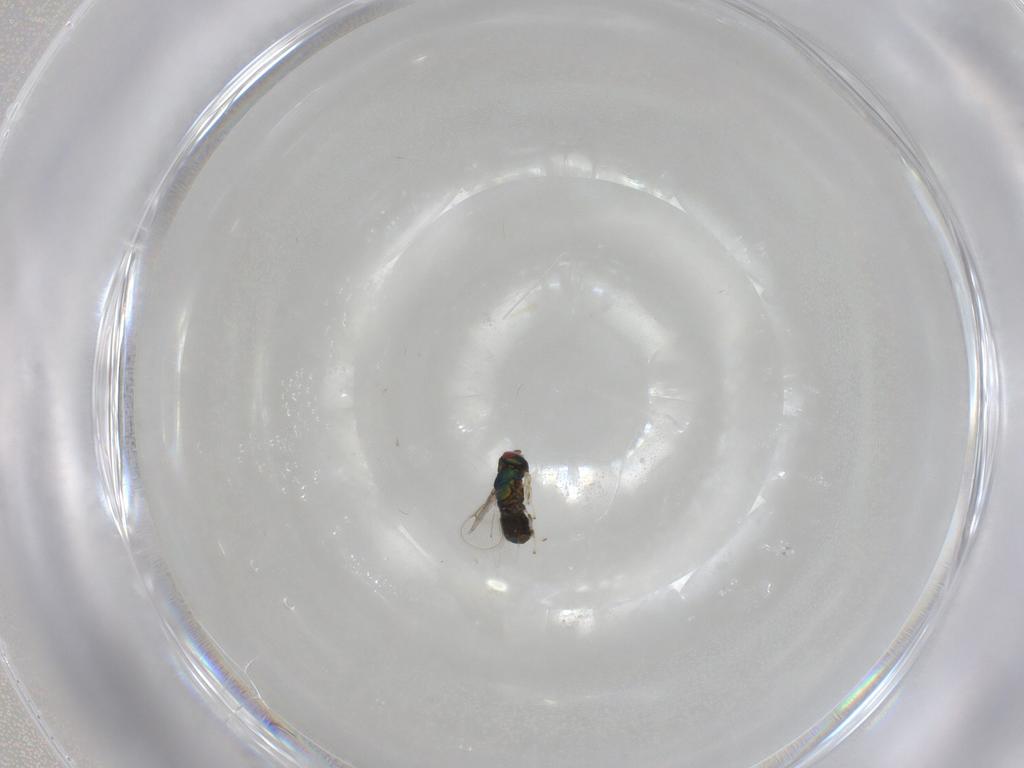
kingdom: Animalia
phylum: Arthropoda
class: Insecta
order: Hymenoptera
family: Eulophidae
